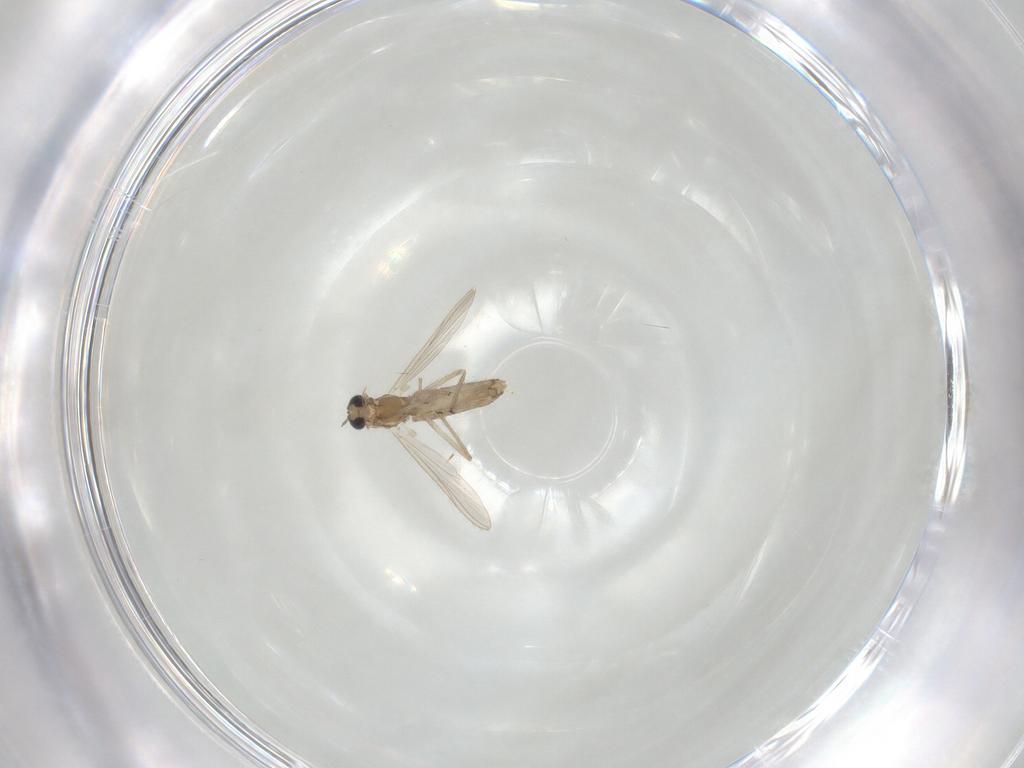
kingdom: Animalia
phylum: Arthropoda
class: Insecta
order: Diptera
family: Chironomidae
